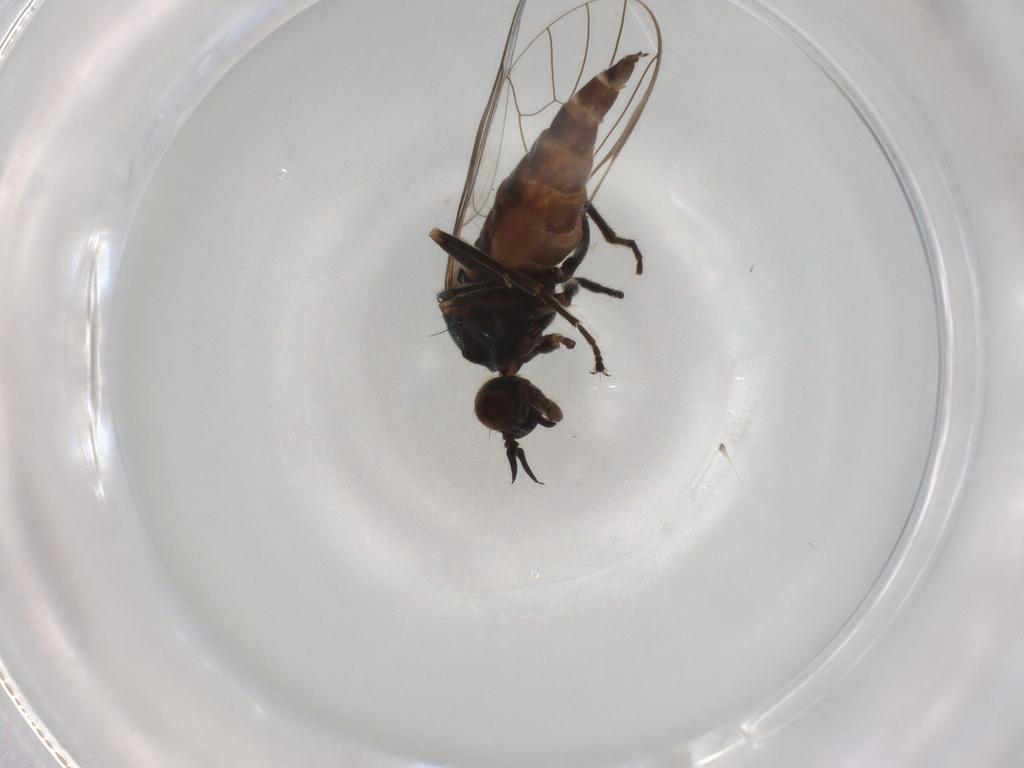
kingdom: Animalia
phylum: Arthropoda
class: Insecta
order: Diptera
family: Empididae
